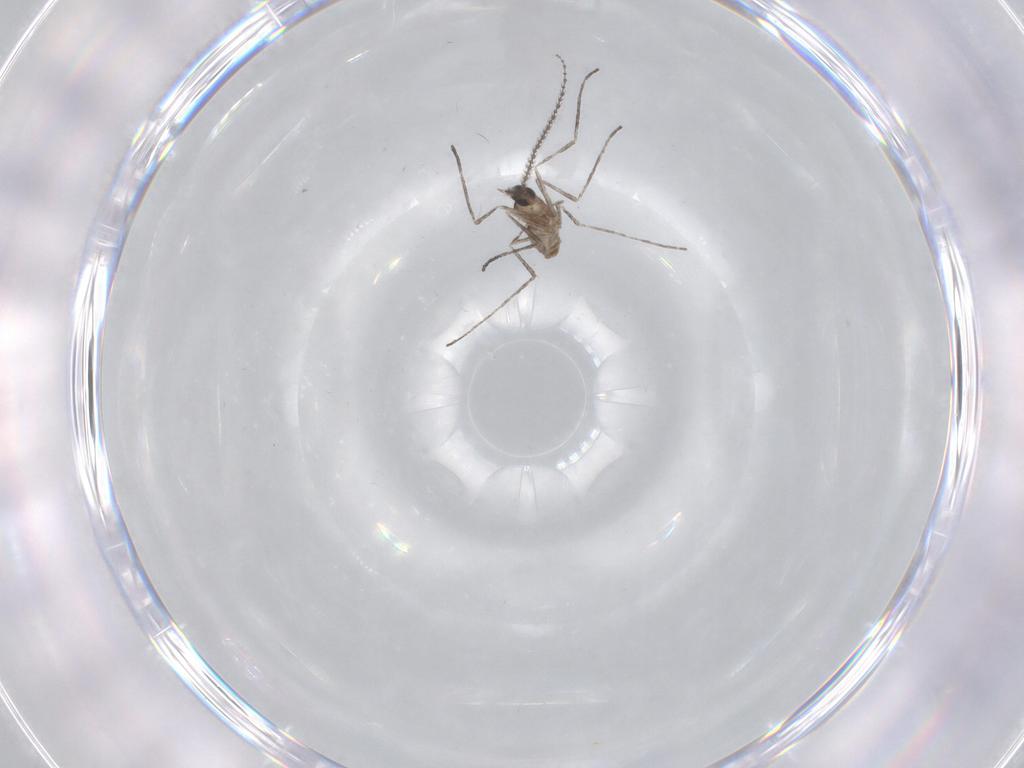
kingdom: Animalia
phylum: Arthropoda
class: Insecta
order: Diptera
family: Cecidomyiidae
